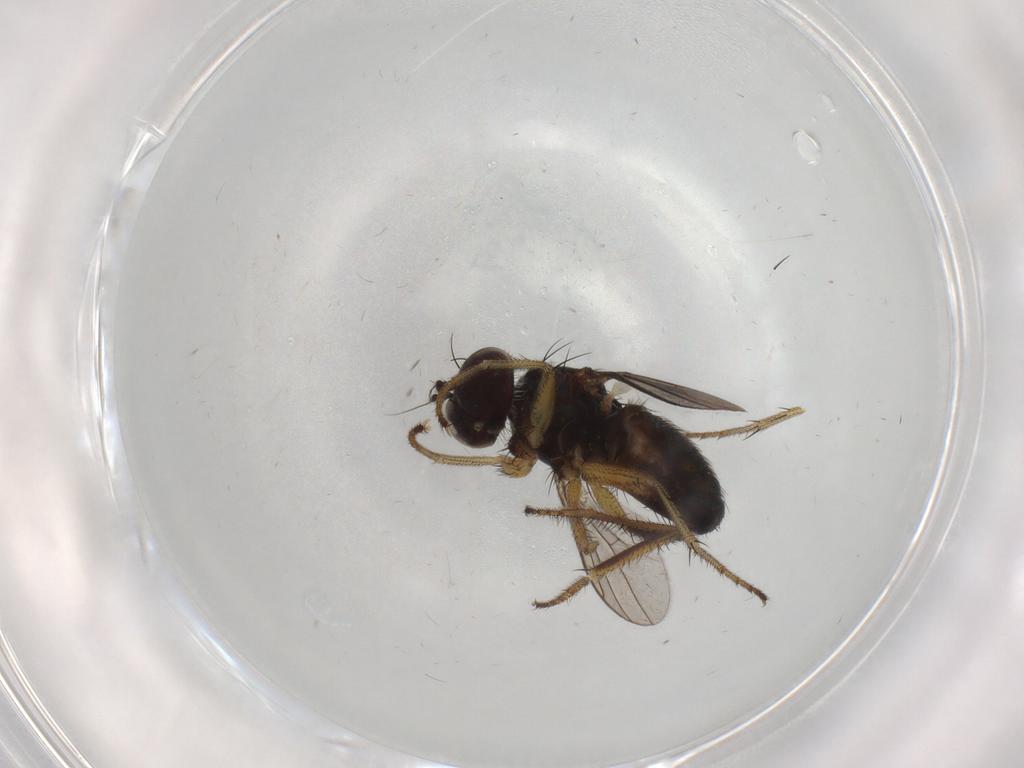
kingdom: Animalia
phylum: Arthropoda
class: Insecta
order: Diptera
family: Dolichopodidae
